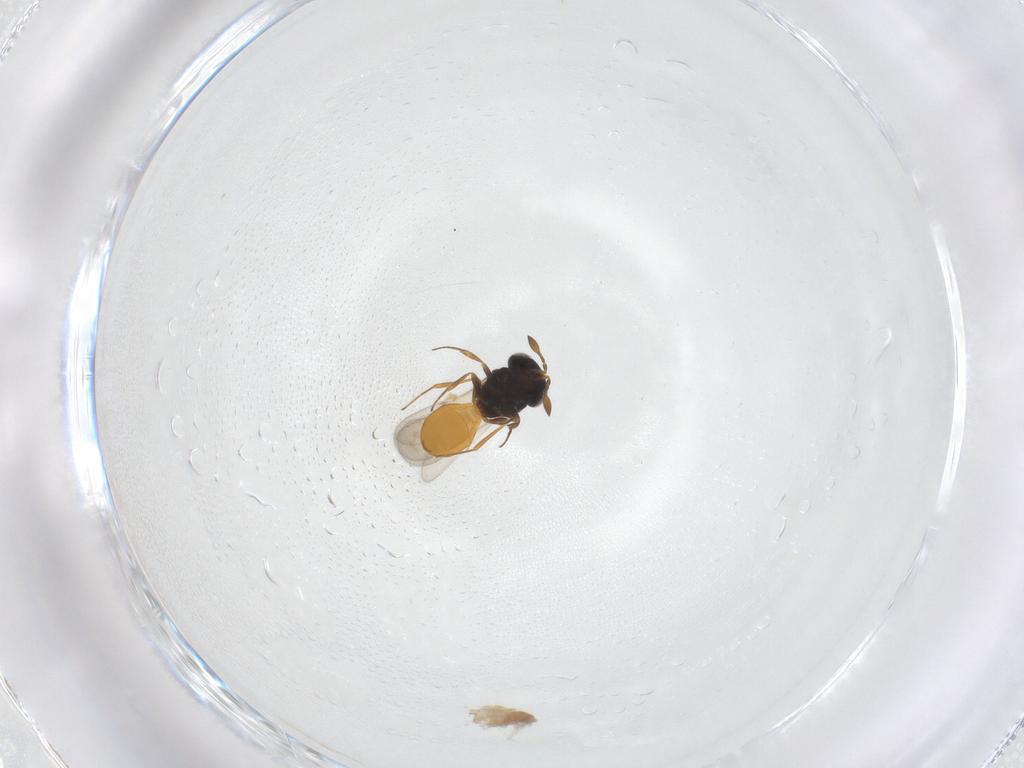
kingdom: Animalia
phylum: Arthropoda
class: Insecta
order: Hymenoptera
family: Scelionidae
